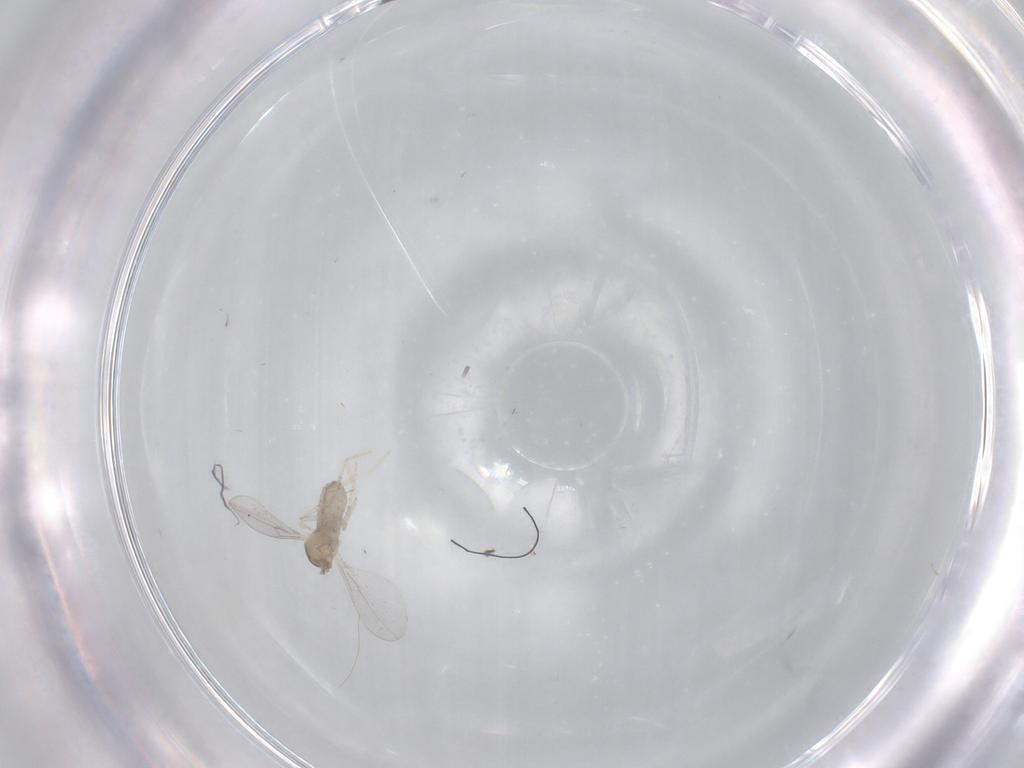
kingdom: Animalia
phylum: Arthropoda
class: Insecta
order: Diptera
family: Cecidomyiidae
